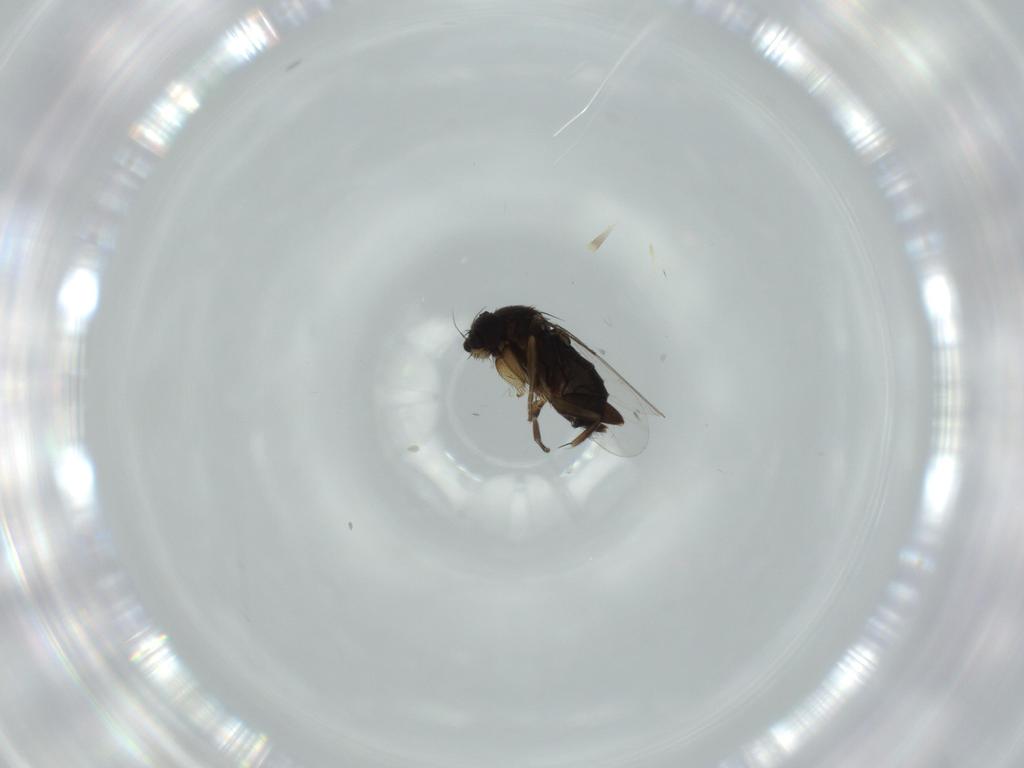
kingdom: Animalia
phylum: Arthropoda
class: Insecta
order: Diptera
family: Phoridae
